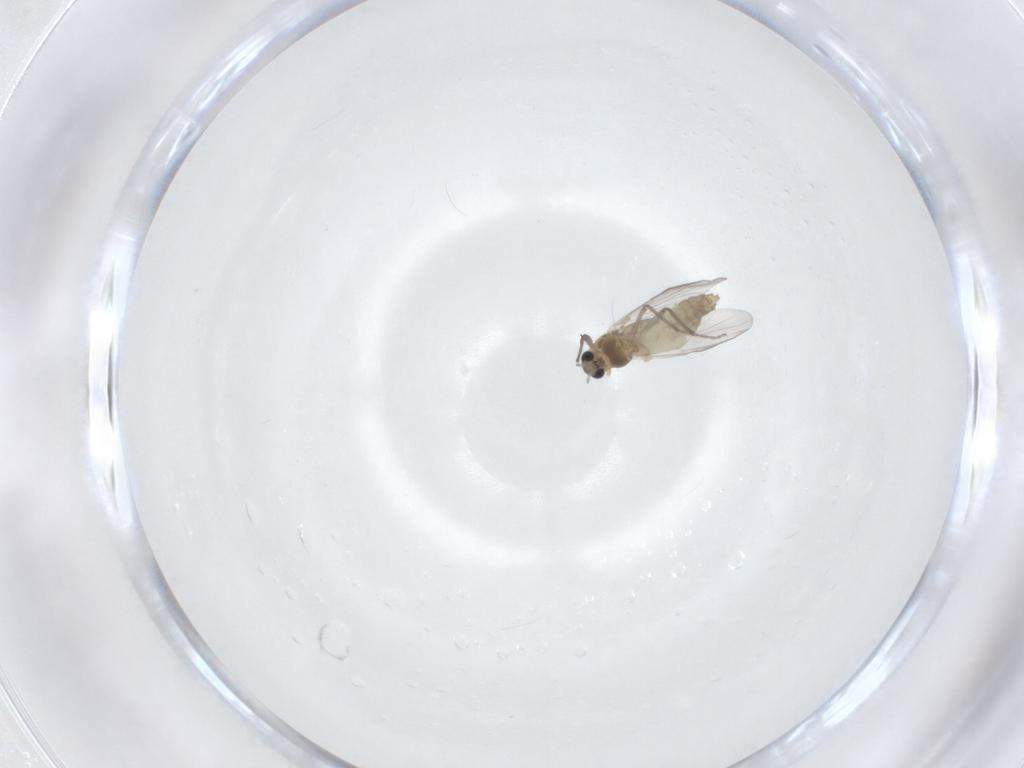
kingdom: Animalia
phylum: Arthropoda
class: Insecta
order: Diptera
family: Chironomidae
